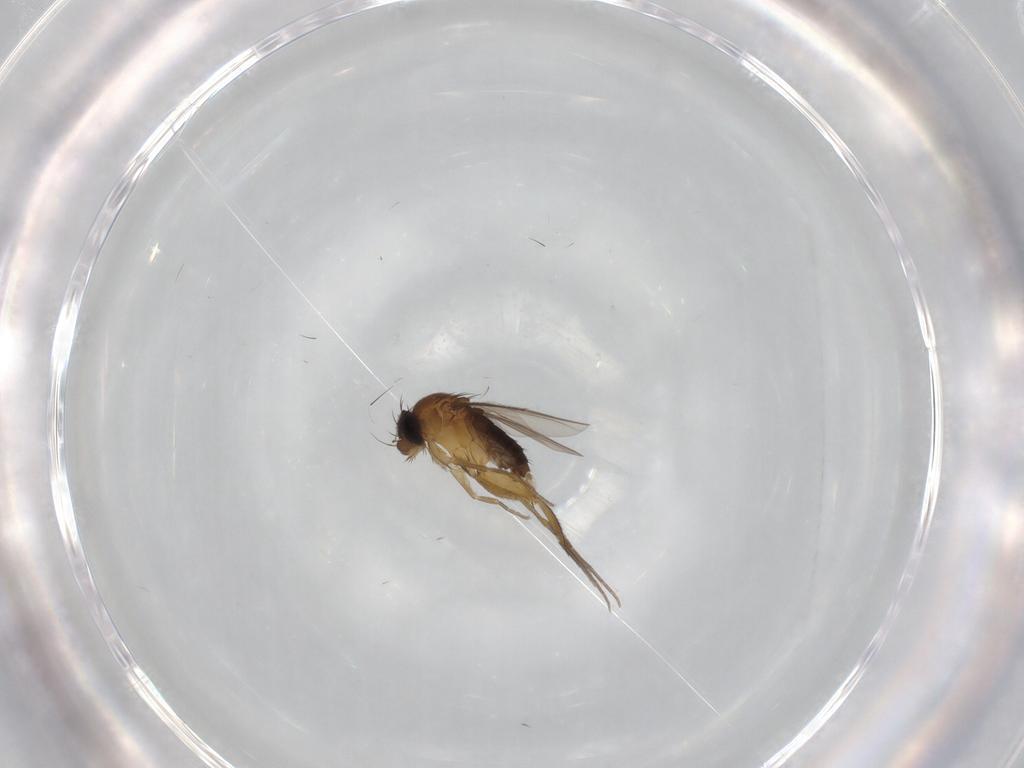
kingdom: Animalia
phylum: Arthropoda
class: Insecta
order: Diptera
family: Phoridae
